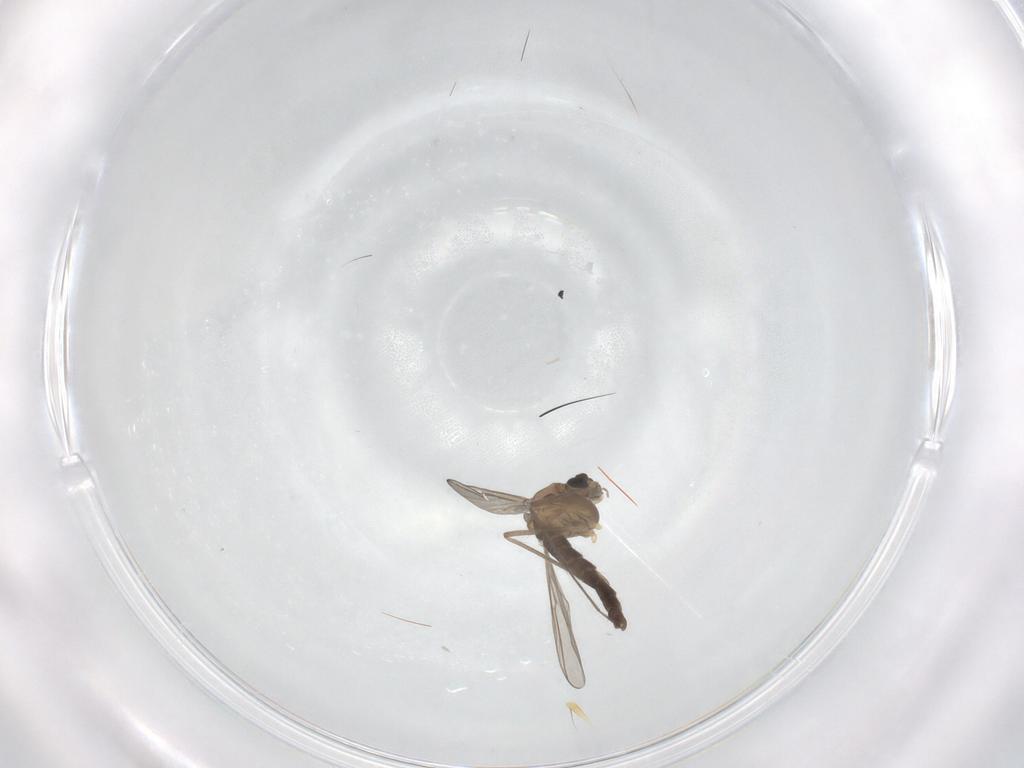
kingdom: Animalia
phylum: Arthropoda
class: Insecta
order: Diptera
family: Chironomidae
